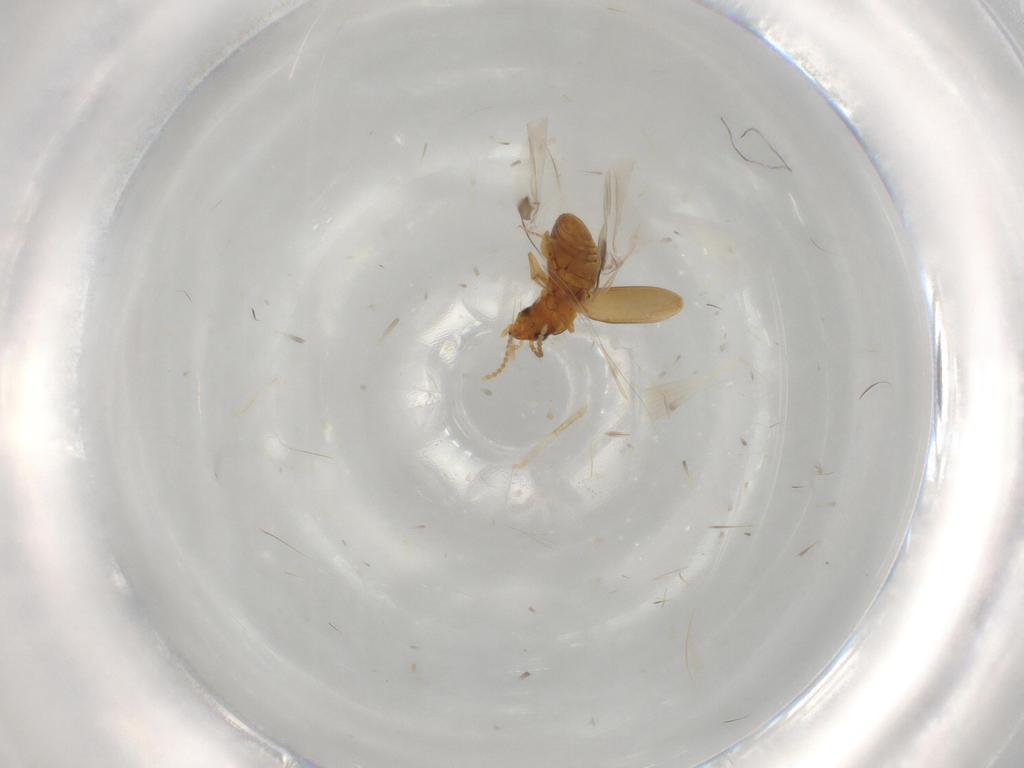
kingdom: Animalia
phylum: Arthropoda
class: Insecta
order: Coleoptera
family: Carabidae
